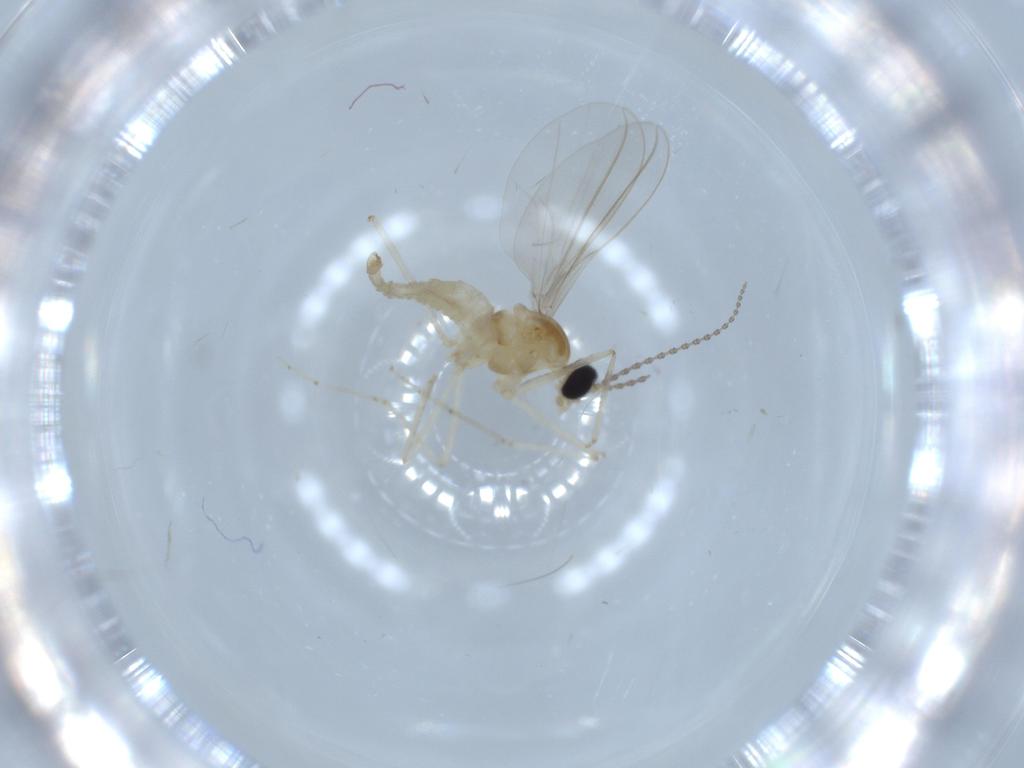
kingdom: Animalia
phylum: Arthropoda
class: Insecta
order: Diptera
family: Cecidomyiidae
